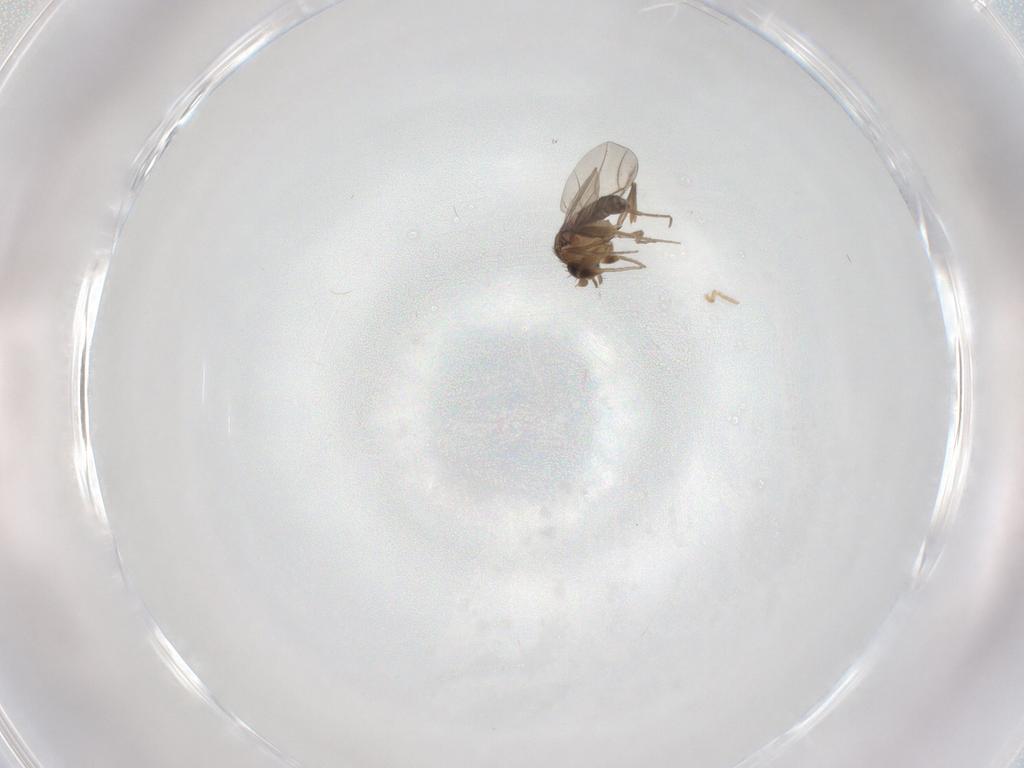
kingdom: Animalia
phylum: Arthropoda
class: Insecta
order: Diptera
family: Phoridae
